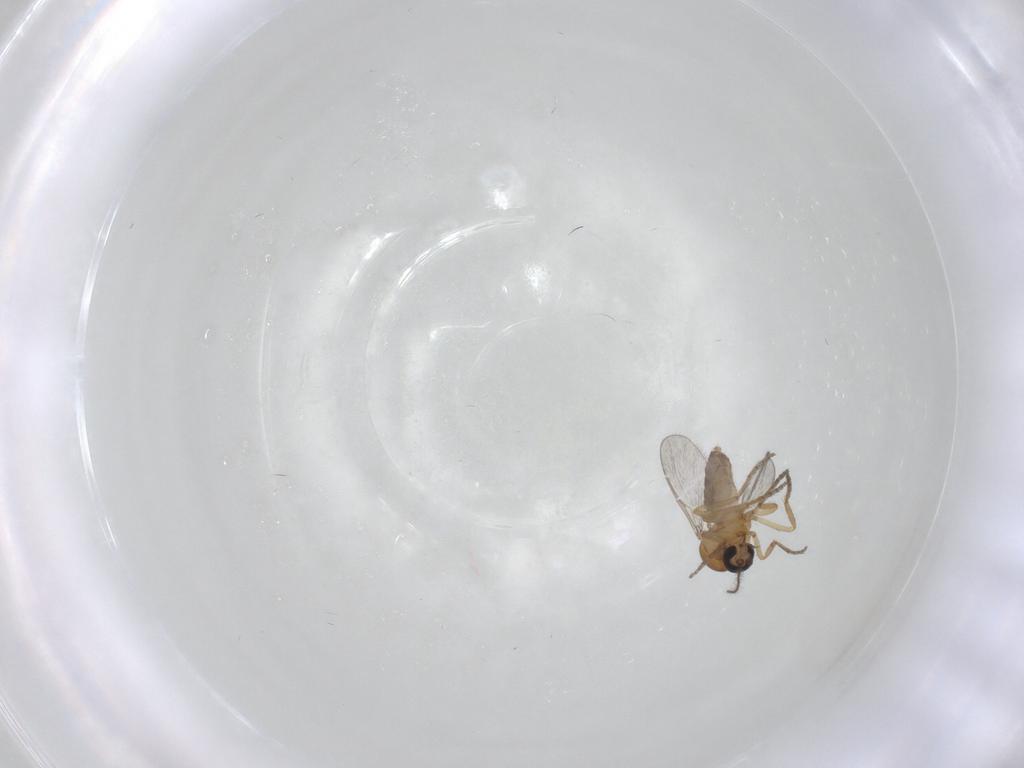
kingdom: Animalia
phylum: Arthropoda
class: Insecta
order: Diptera
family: Ceratopogonidae
